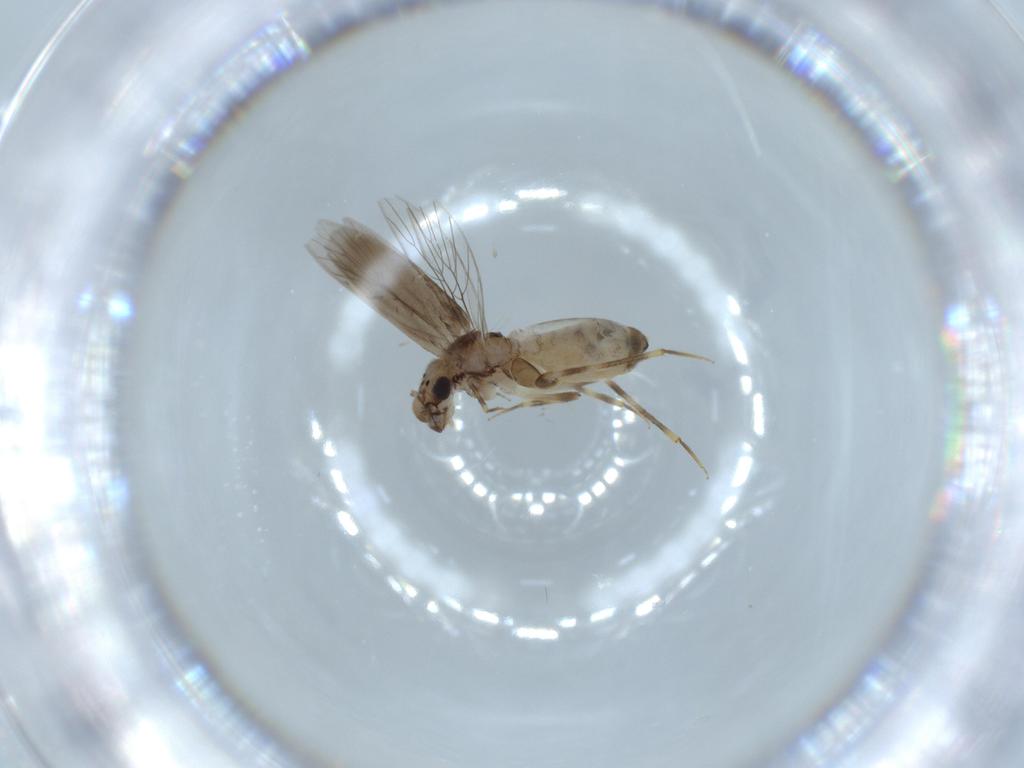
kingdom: Animalia
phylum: Arthropoda
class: Insecta
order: Psocodea
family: Lepidopsocidae
